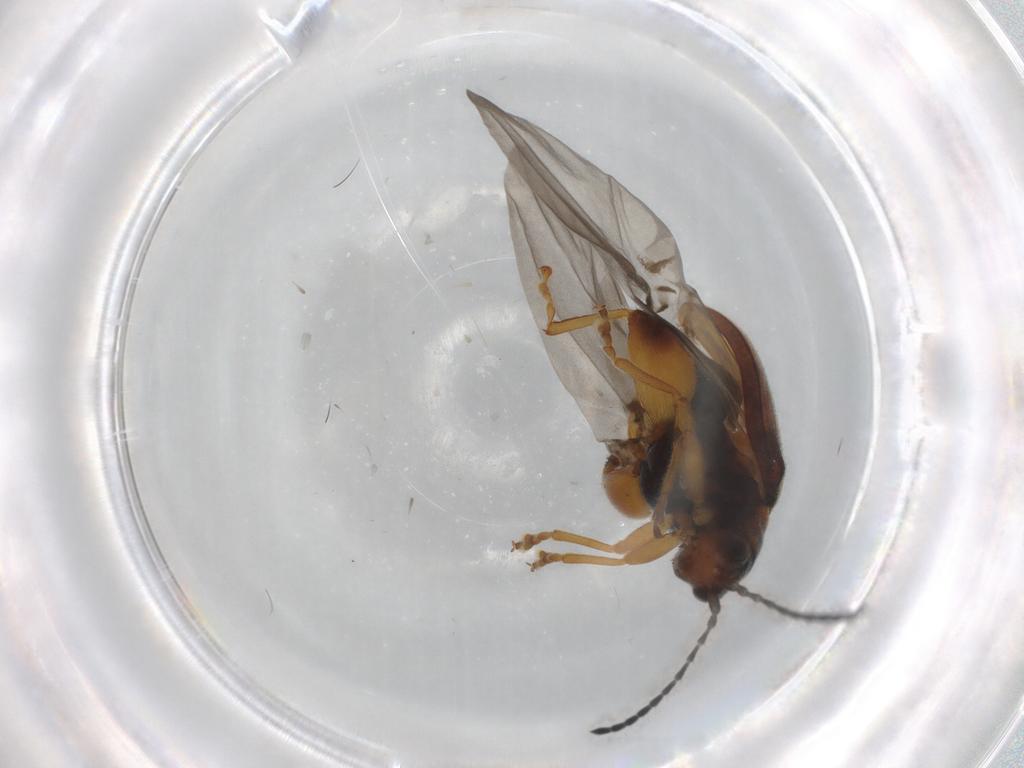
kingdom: Animalia
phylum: Arthropoda
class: Insecta
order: Coleoptera
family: Chrysomelidae
